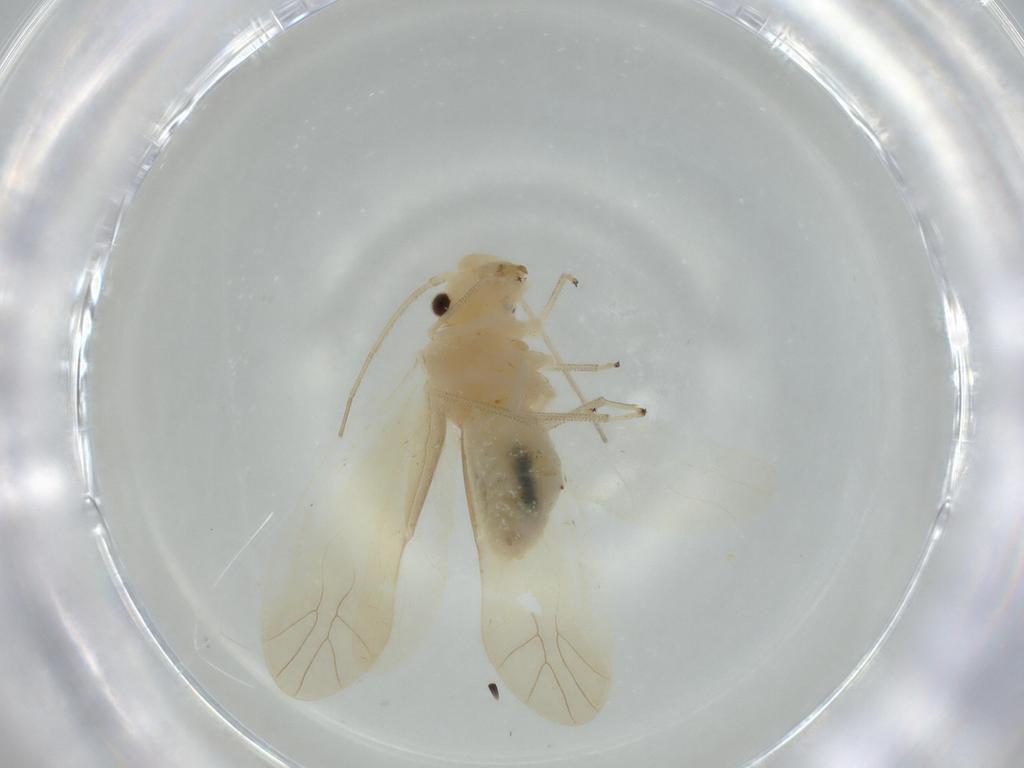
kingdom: Animalia
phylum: Arthropoda
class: Insecta
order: Psocodea
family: Caeciliusidae
